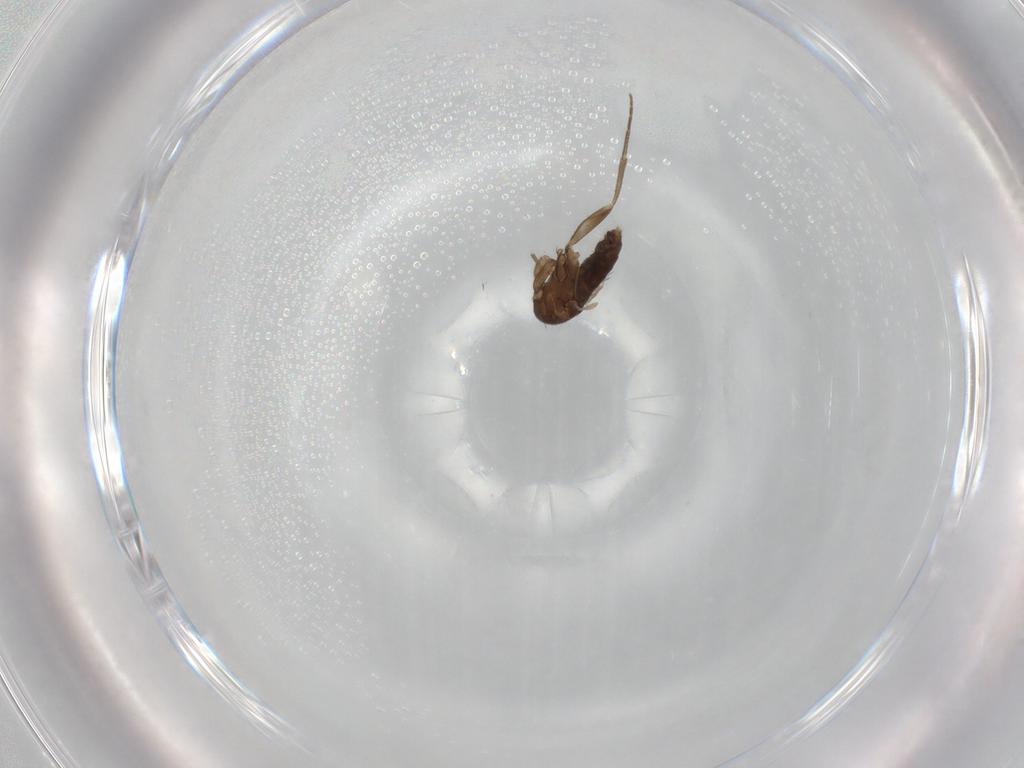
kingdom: Animalia
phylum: Arthropoda
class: Insecta
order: Diptera
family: Phoridae
